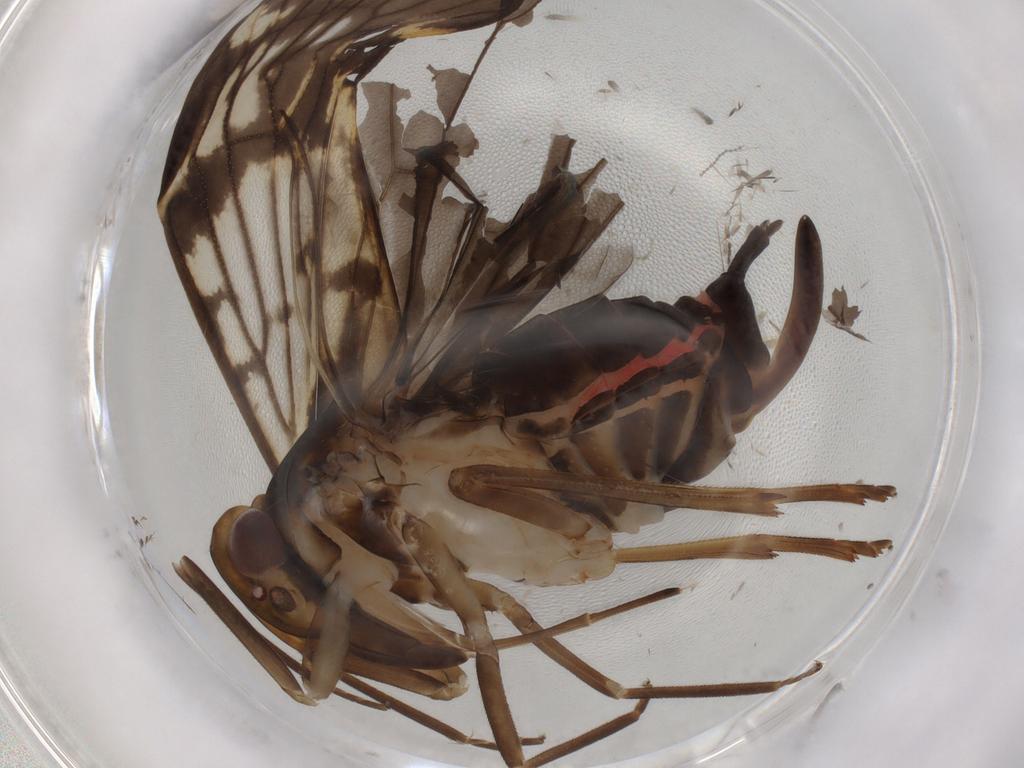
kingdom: Animalia
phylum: Arthropoda
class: Insecta
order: Hemiptera
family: Cixiidae
